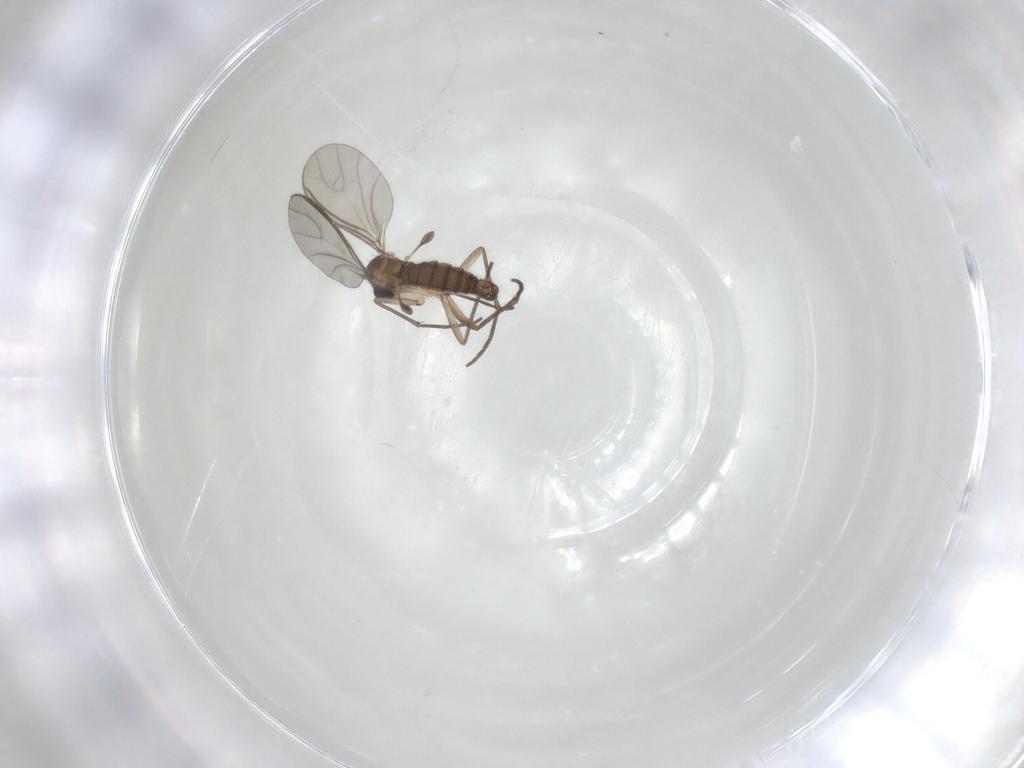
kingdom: Animalia
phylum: Arthropoda
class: Insecta
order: Diptera
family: Sciaridae
